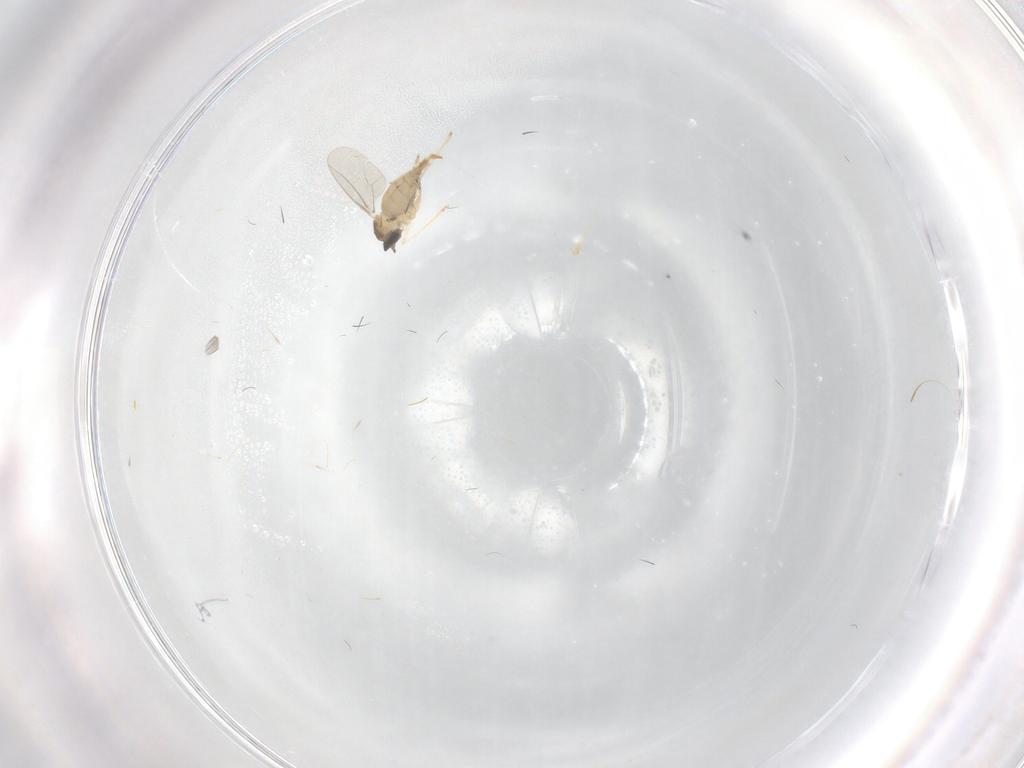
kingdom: Animalia
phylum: Arthropoda
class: Insecta
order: Diptera
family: Cecidomyiidae
